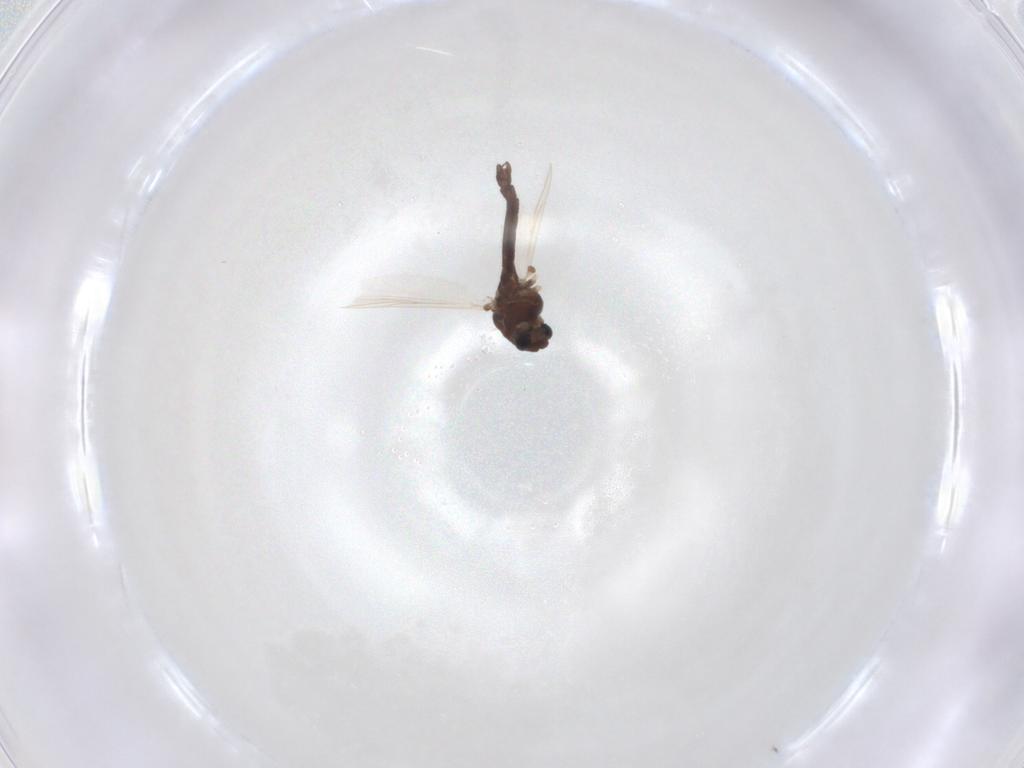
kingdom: Animalia
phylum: Arthropoda
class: Insecta
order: Diptera
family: Chironomidae
